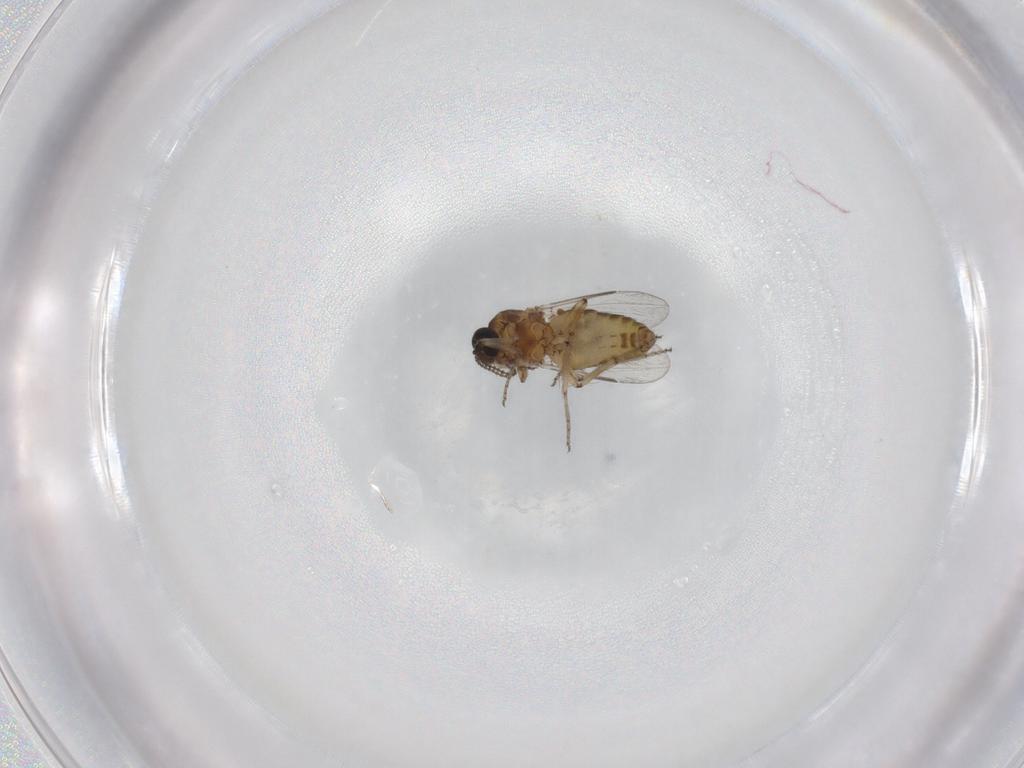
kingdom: Animalia
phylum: Arthropoda
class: Insecta
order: Diptera
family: Ceratopogonidae
